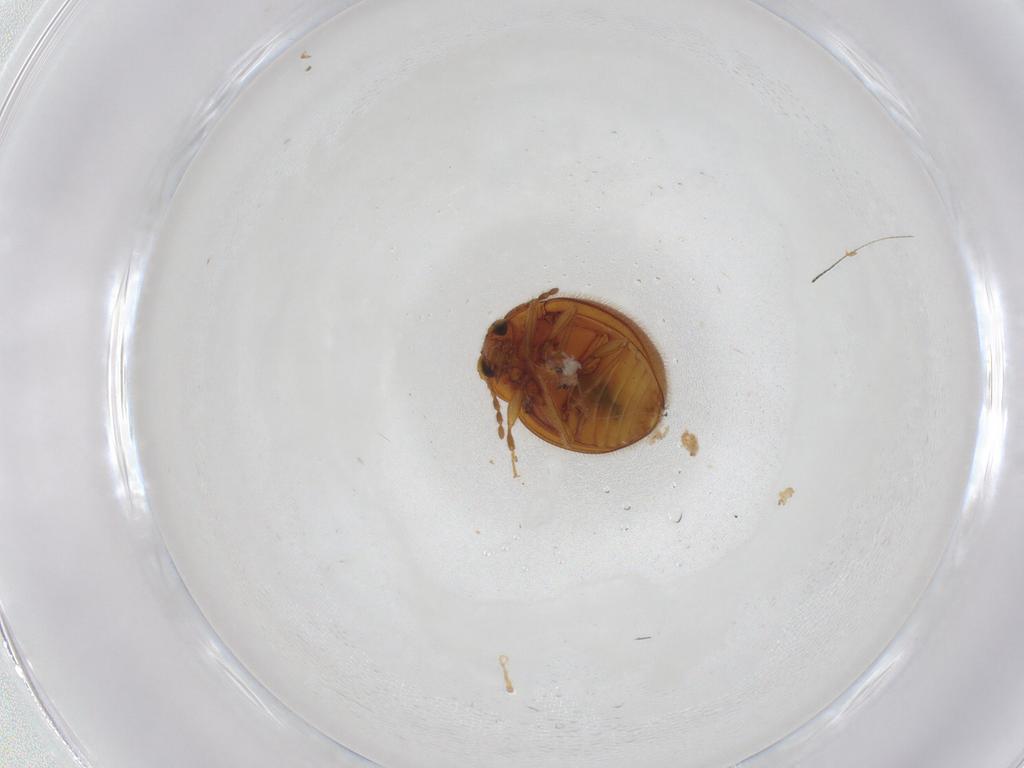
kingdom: Animalia
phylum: Arthropoda
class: Insecta
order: Coleoptera
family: Anamorphidae
